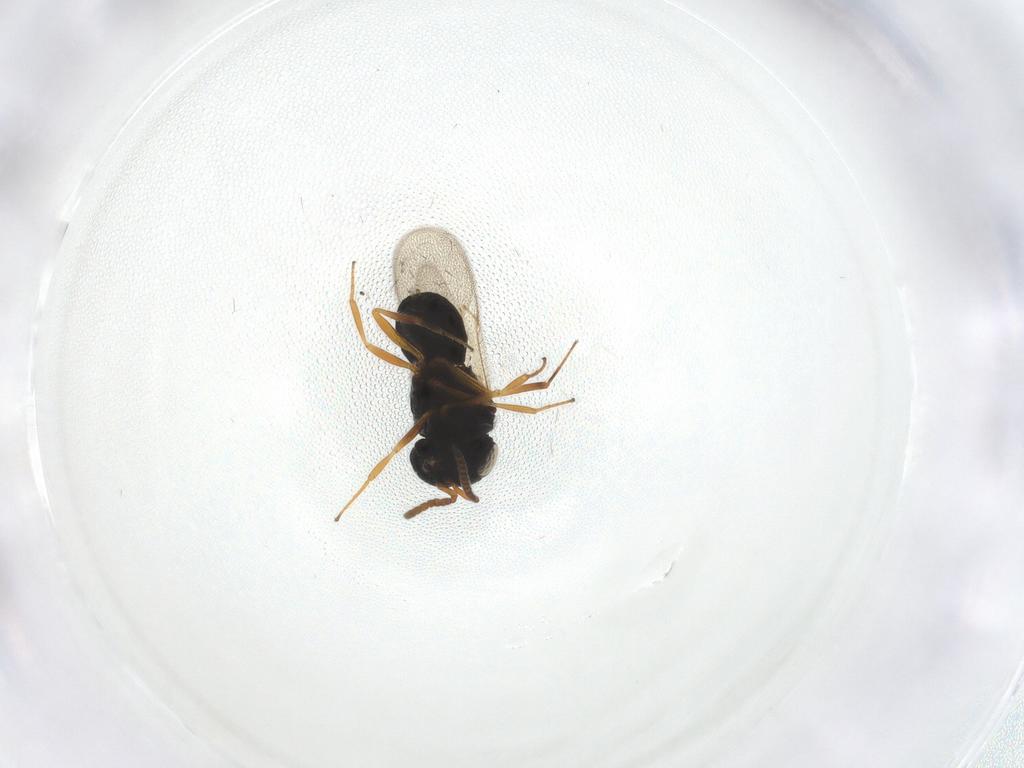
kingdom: Animalia
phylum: Arthropoda
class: Insecta
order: Hymenoptera
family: Scelionidae
